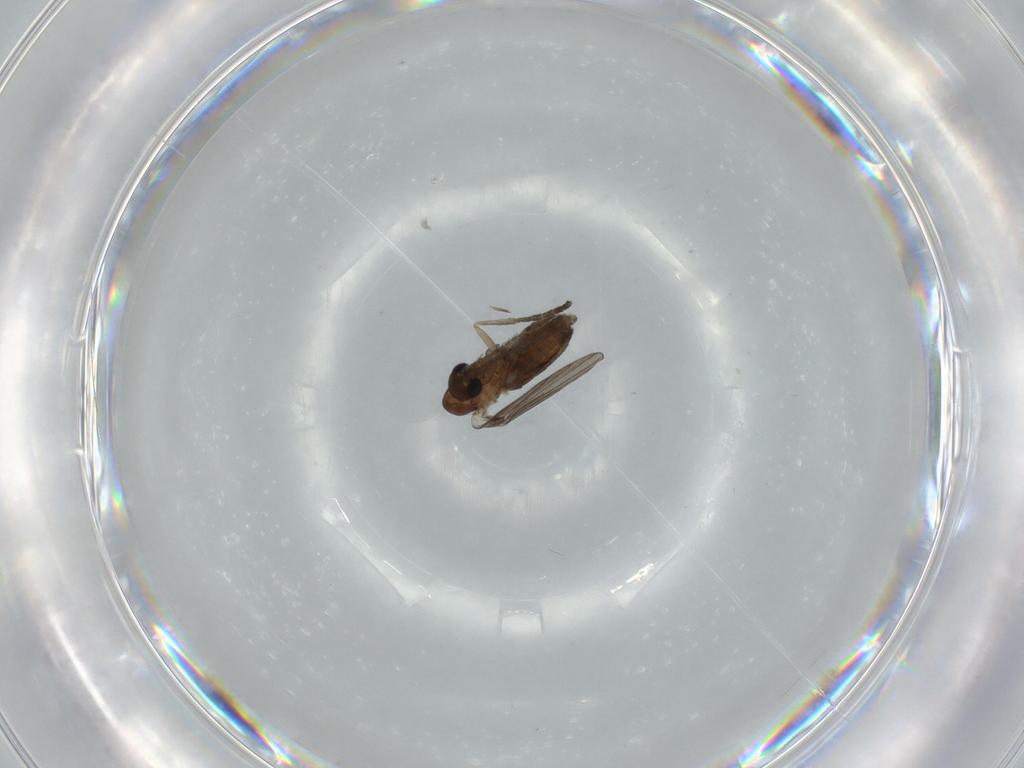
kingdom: Animalia
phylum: Arthropoda
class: Insecta
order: Diptera
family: Psychodidae
